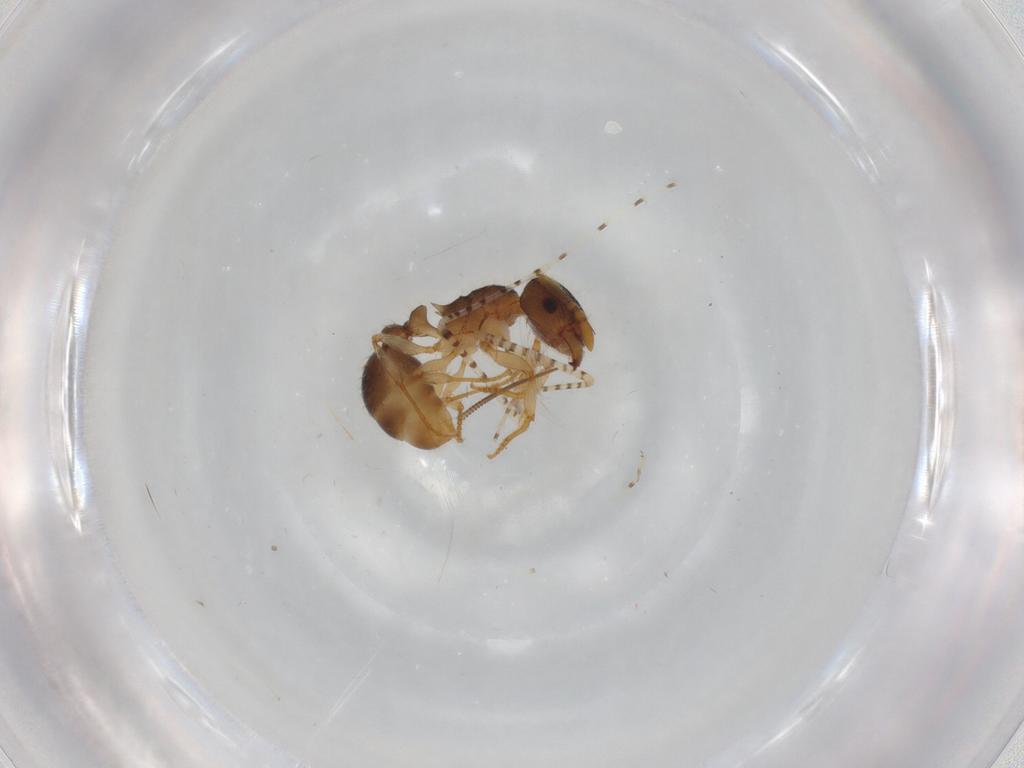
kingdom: Animalia
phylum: Arthropoda
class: Insecta
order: Hymenoptera
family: Formicidae
